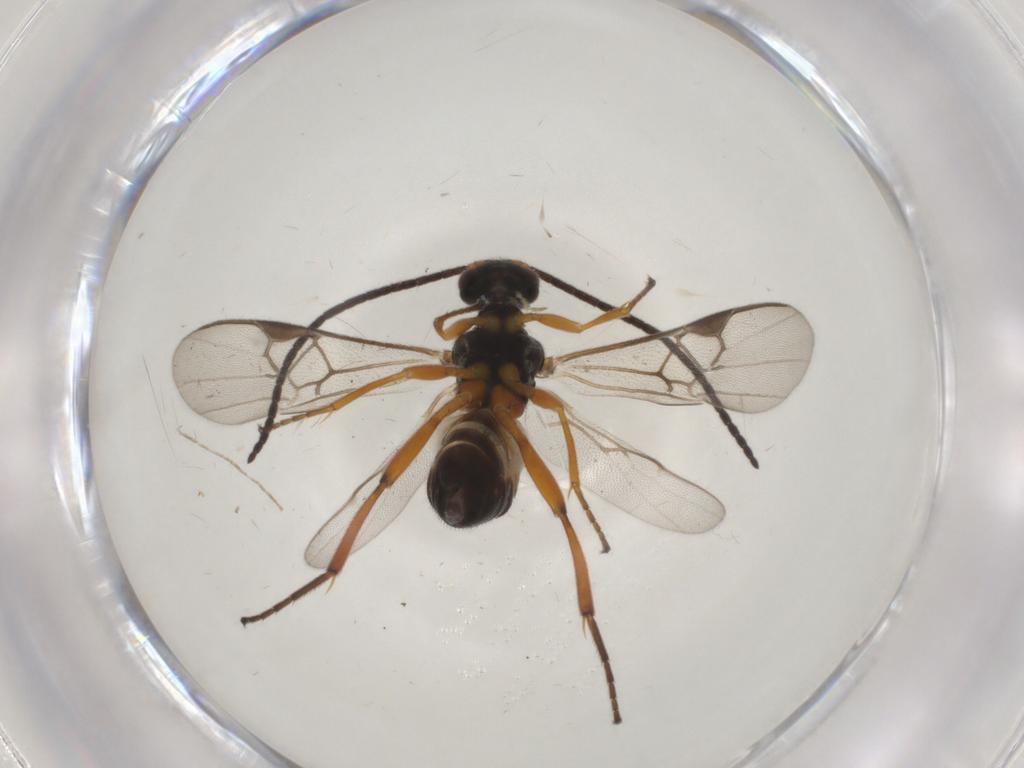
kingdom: Animalia
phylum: Arthropoda
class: Insecta
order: Hymenoptera
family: Braconidae
